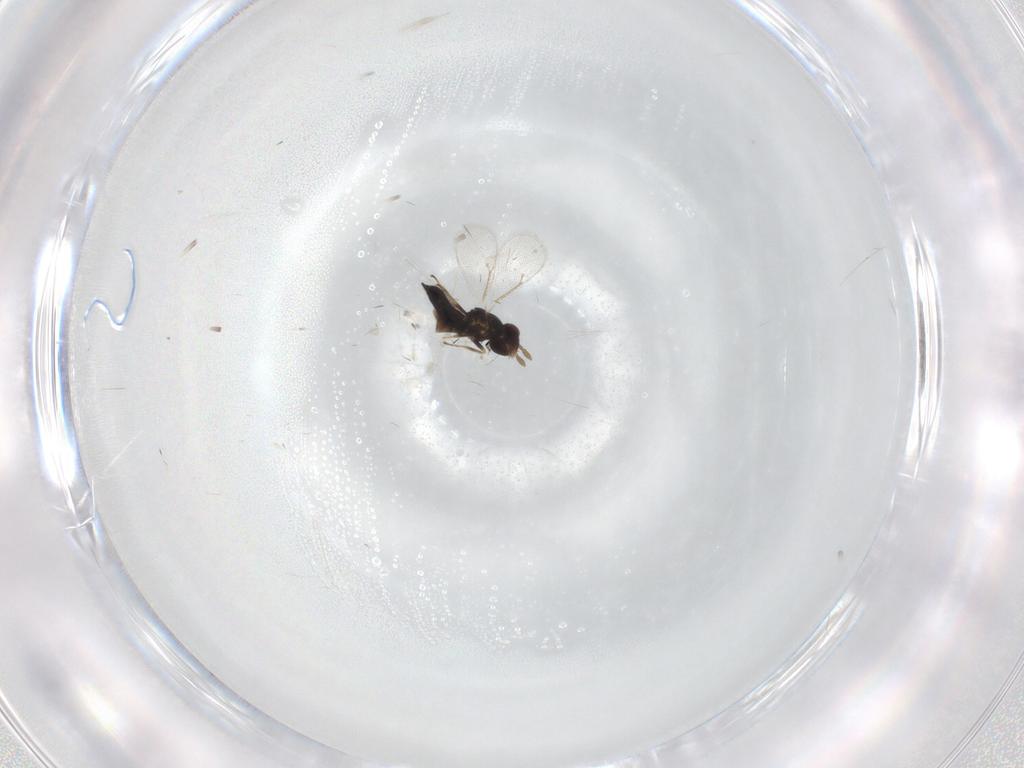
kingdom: Animalia
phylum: Arthropoda
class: Insecta
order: Hymenoptera
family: Eulophidae
